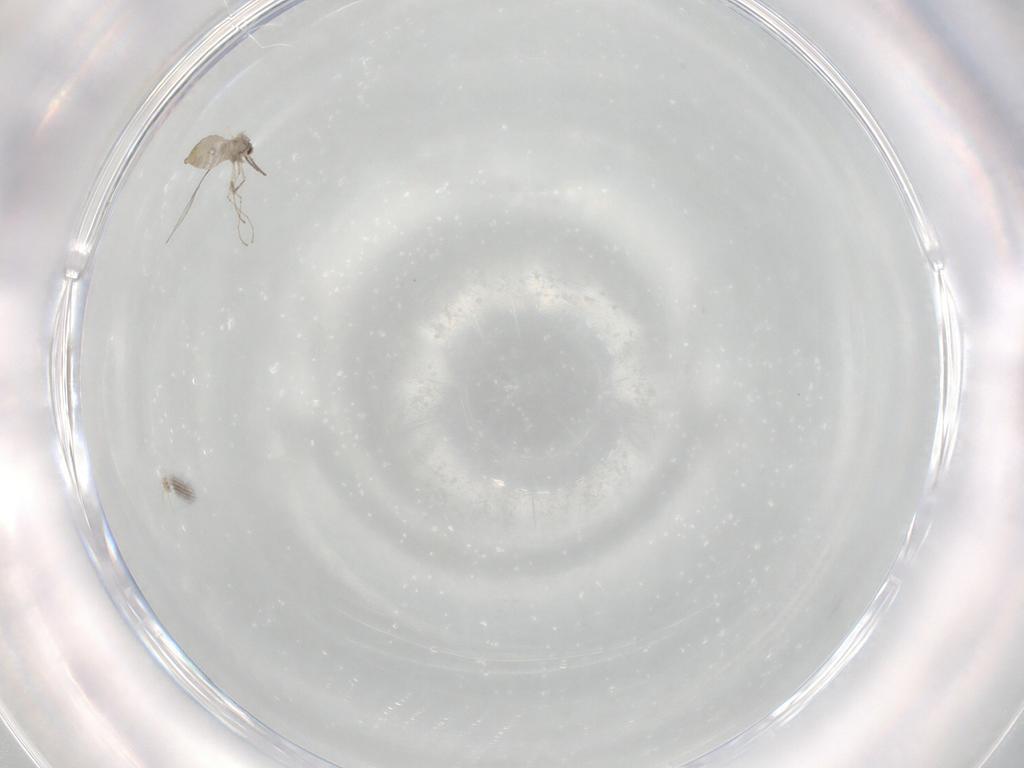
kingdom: Animalia
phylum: Arthropoda
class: Insecta
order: Diptera
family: Cecidomyiidae
